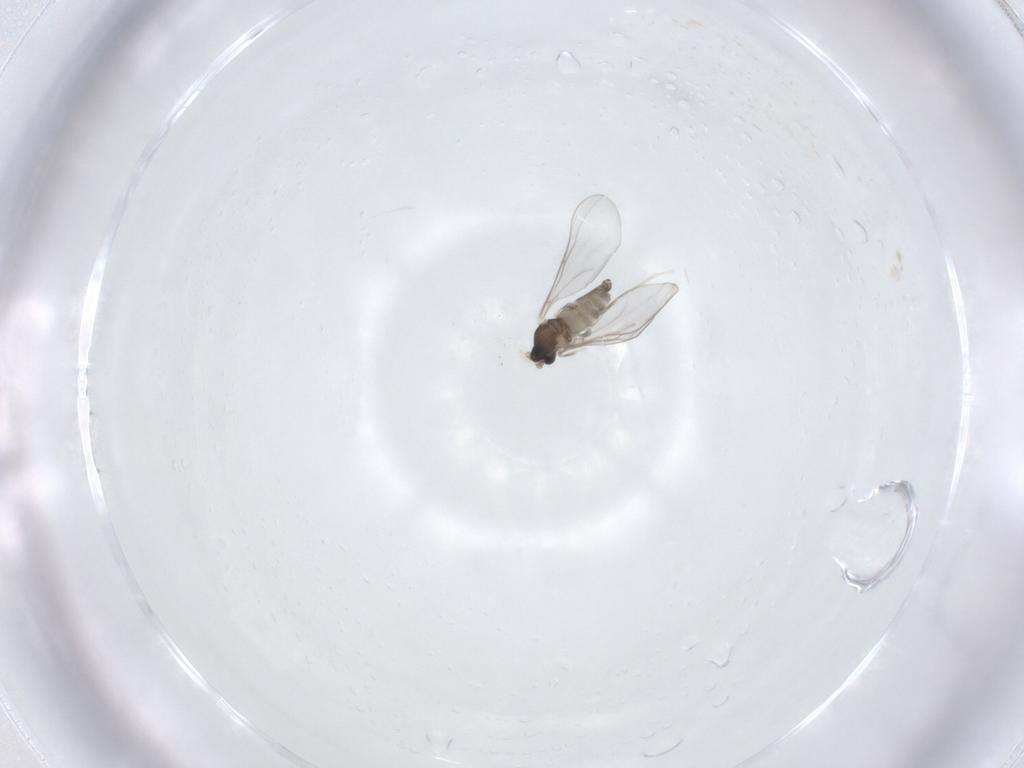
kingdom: Animalia
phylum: Arthropoda
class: Insecta
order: Diptera
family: Cecidomyiidae
